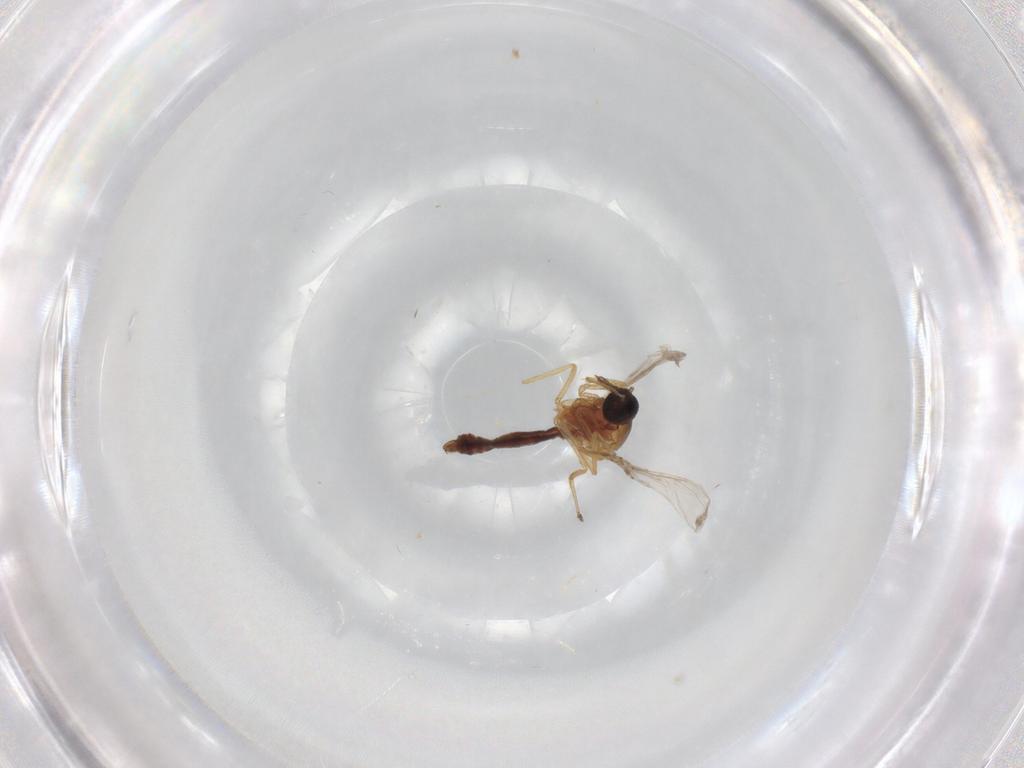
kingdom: Animalia
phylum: Arthropoda
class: Insecta
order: Diptera
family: Ceratopogonidae
